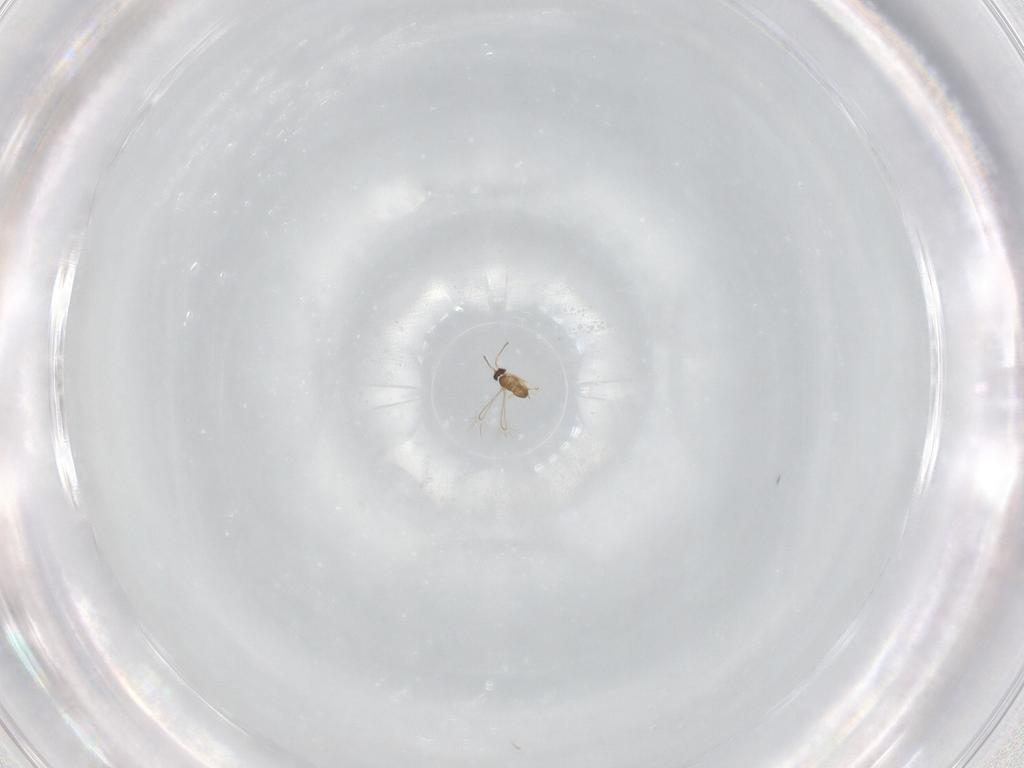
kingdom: Animalia
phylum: Arthropoda
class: Insecta
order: Hymenoptera
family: Mymaridae
